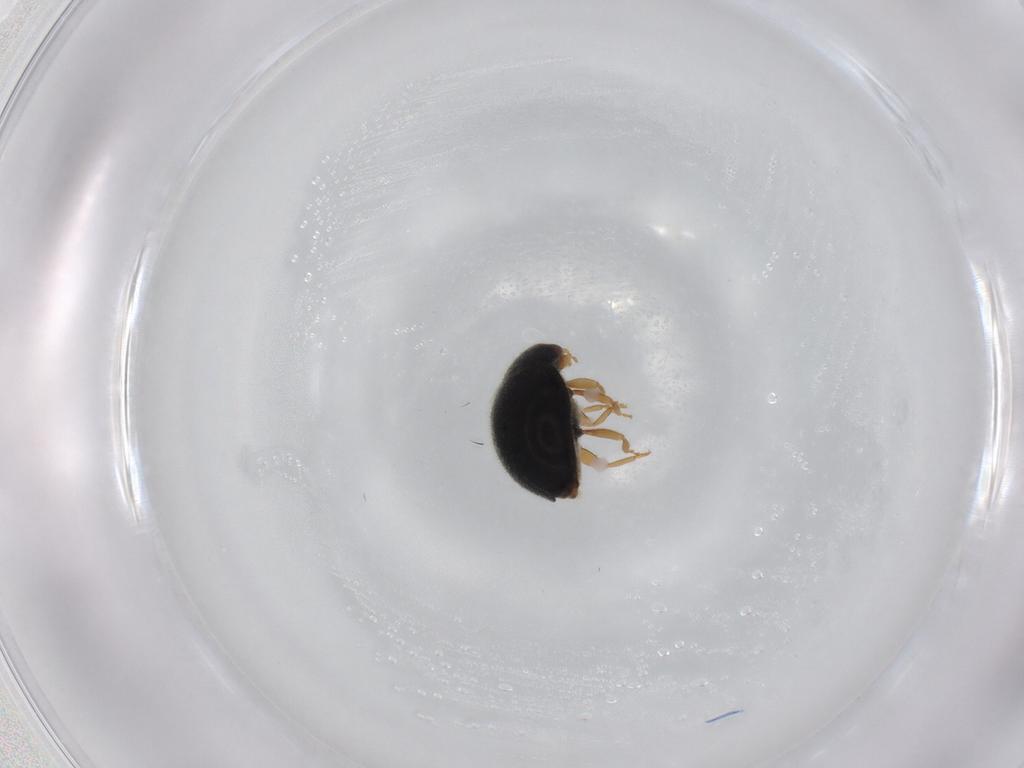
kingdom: Animalia
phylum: Arthropoda
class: Insecta
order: Coleoptera
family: Coccinellidae
